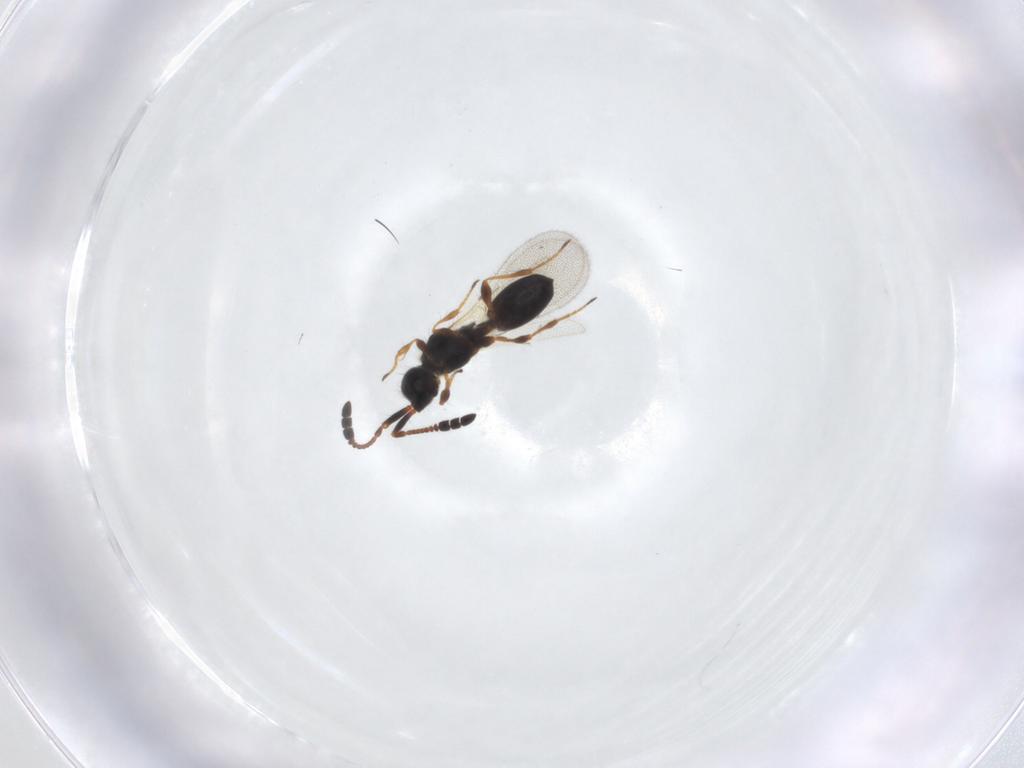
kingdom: Animalia
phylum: Arthropoda
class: Insecta
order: Hymenoptera
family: Diapriidae
